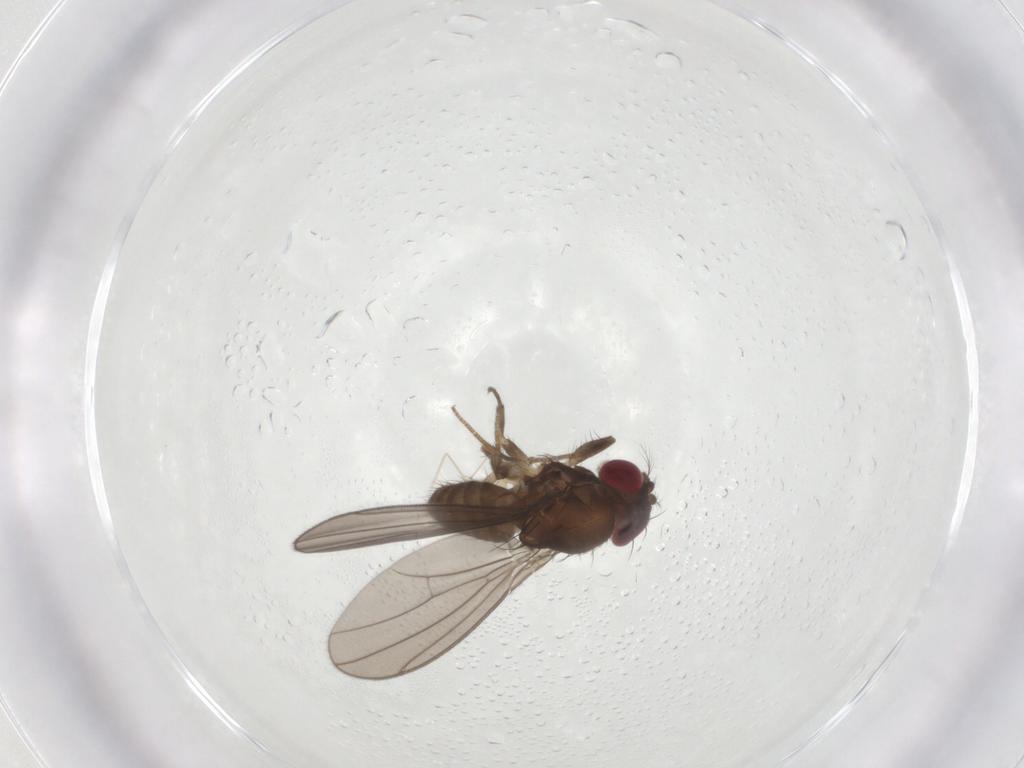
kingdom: Animalia
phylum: Arthropoda
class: Insecta
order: Diptera
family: Drosophilidae
